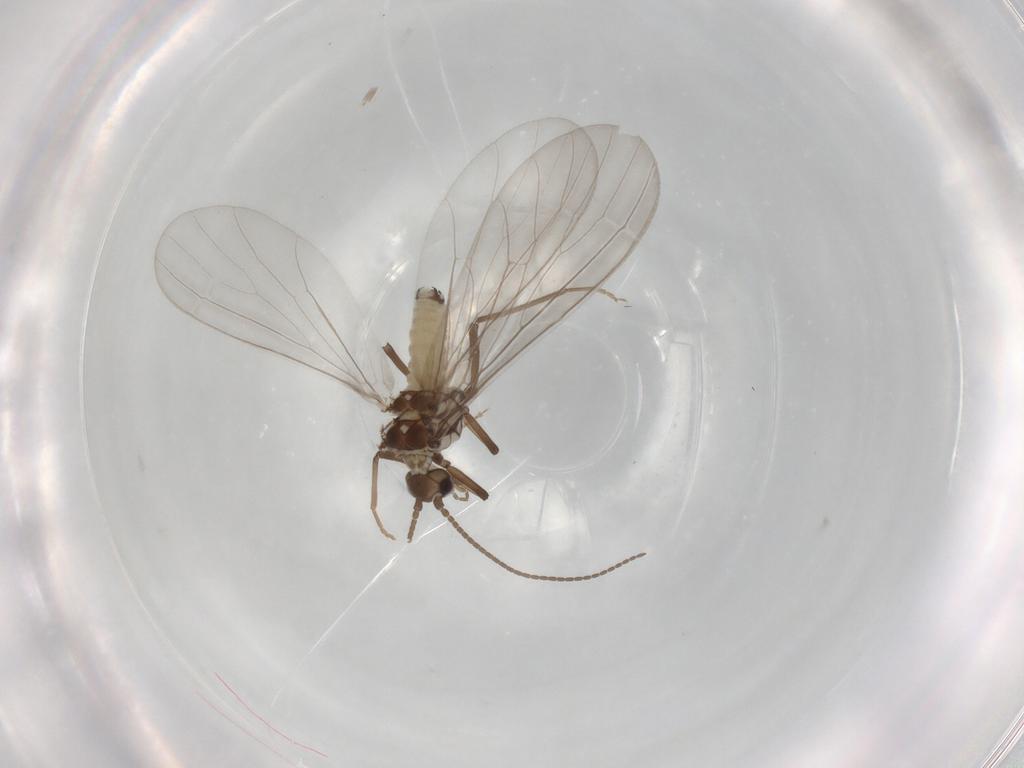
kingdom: Animalia
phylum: Arthropoda
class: Insecta
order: Neuroptera
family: Coniopterygidae
